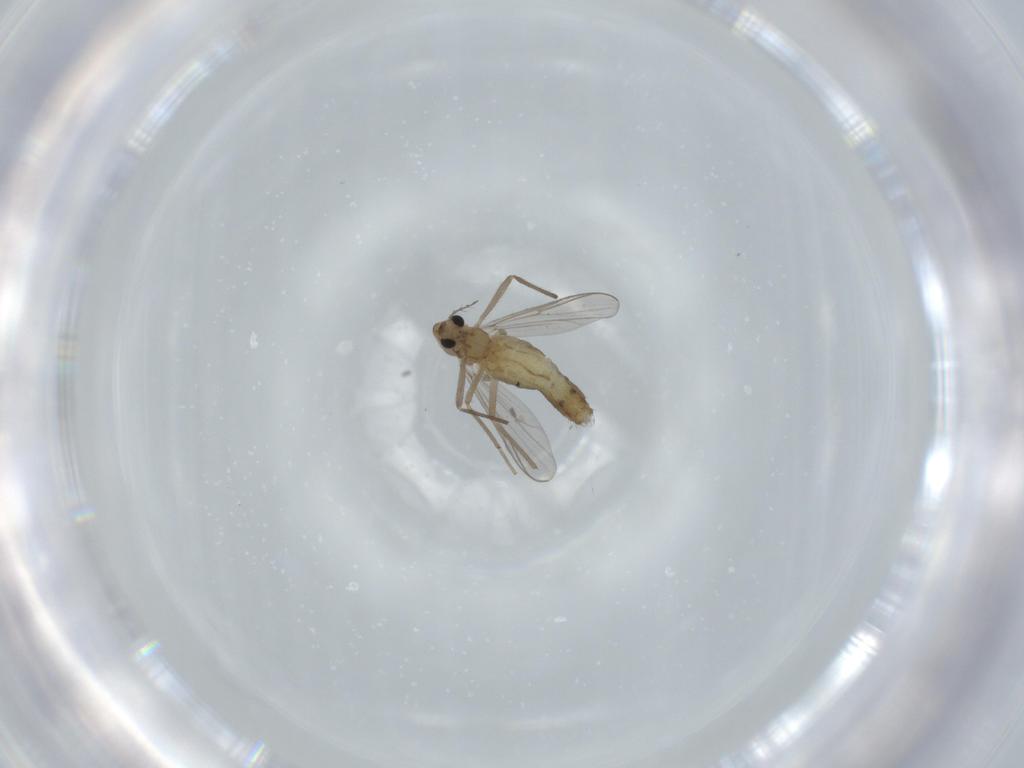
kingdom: Animalia
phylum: Arthropoda
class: Insecta
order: Diptera
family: Chironomidae
